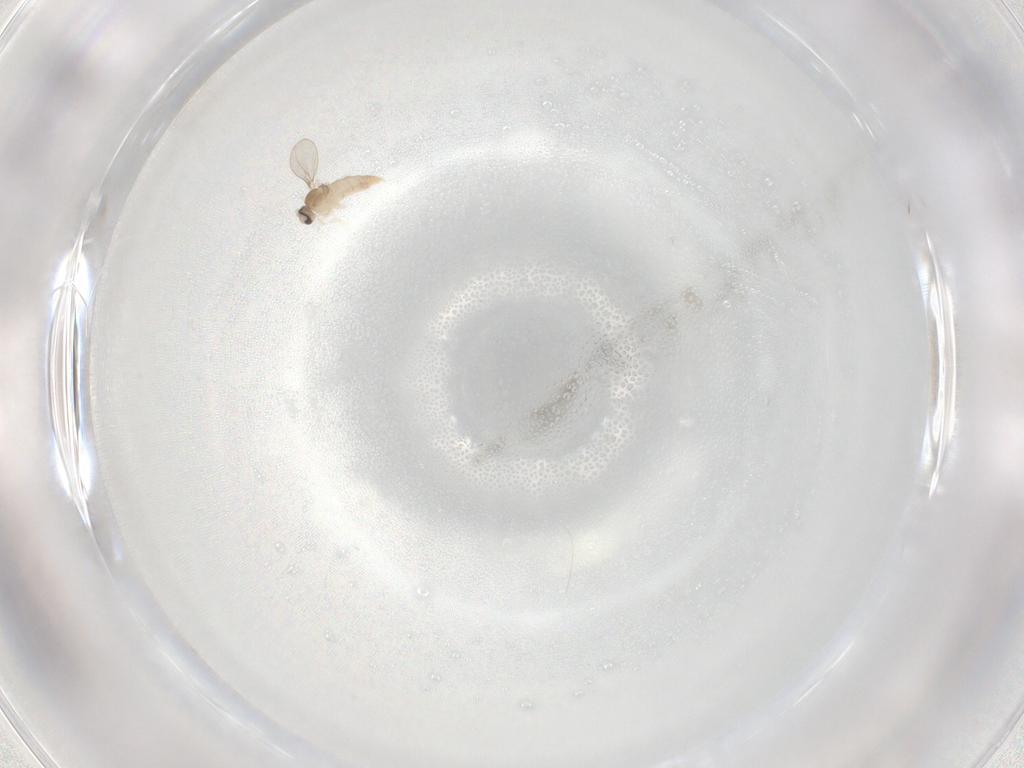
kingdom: Animalia
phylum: Arthropoda
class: Insecta
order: Diptera
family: Cecidomyiidae
